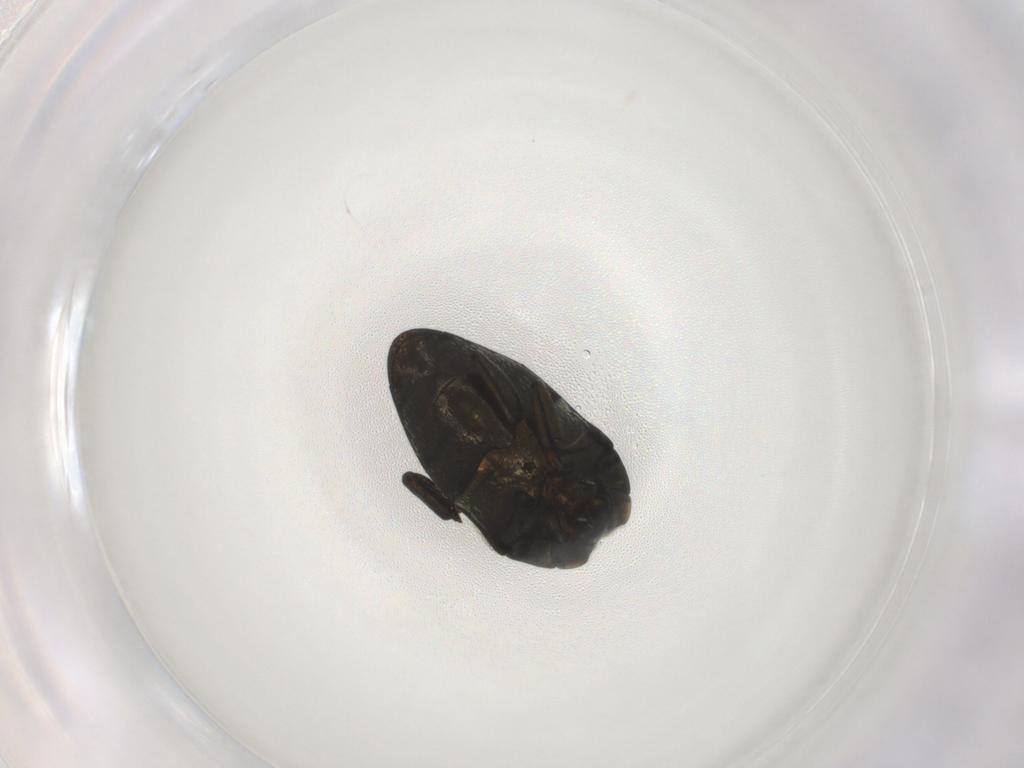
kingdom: Animalia
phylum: Arthropoda
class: Insecta
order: Coleoptera
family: Buprestidae
